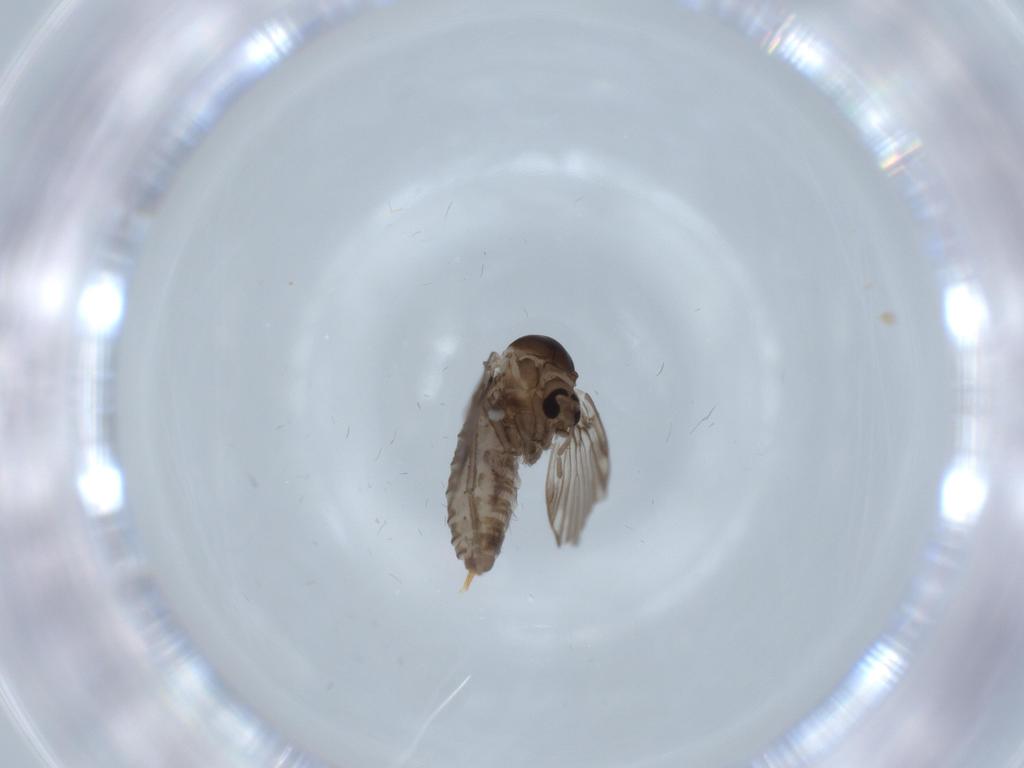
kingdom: Animalia
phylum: Arthropoda
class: Insecta
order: Diptera
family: Psychodidae
